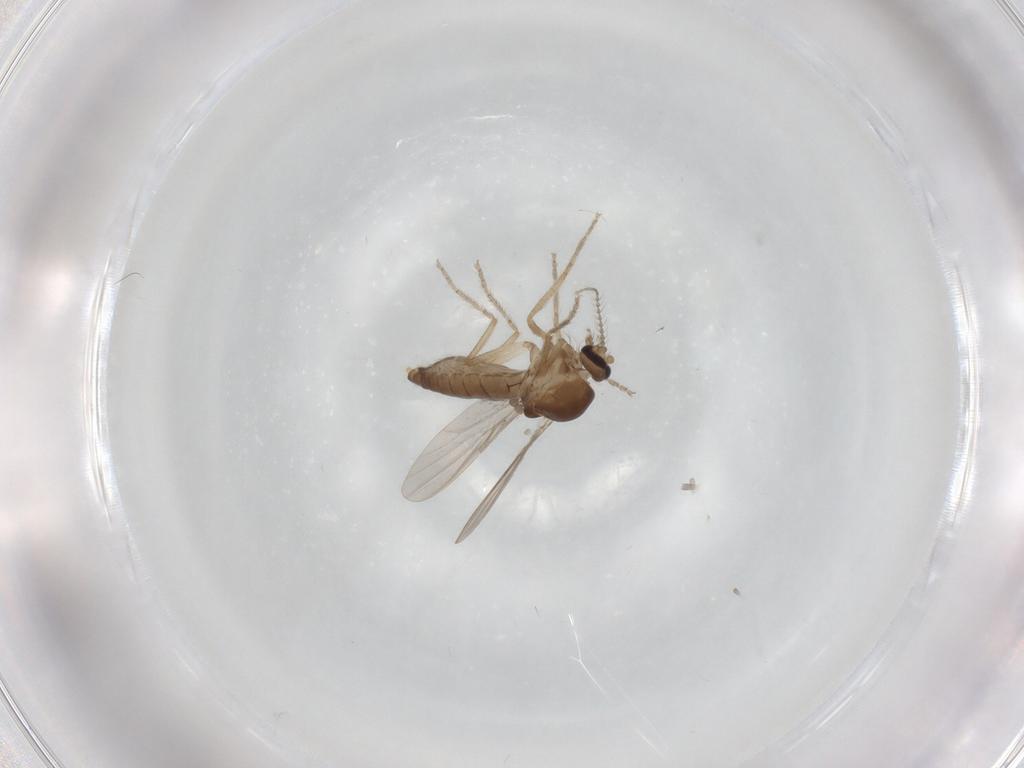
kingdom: Animalia
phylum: Arthropoda
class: Insecta
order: Diptera
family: Ceratopogonidae
